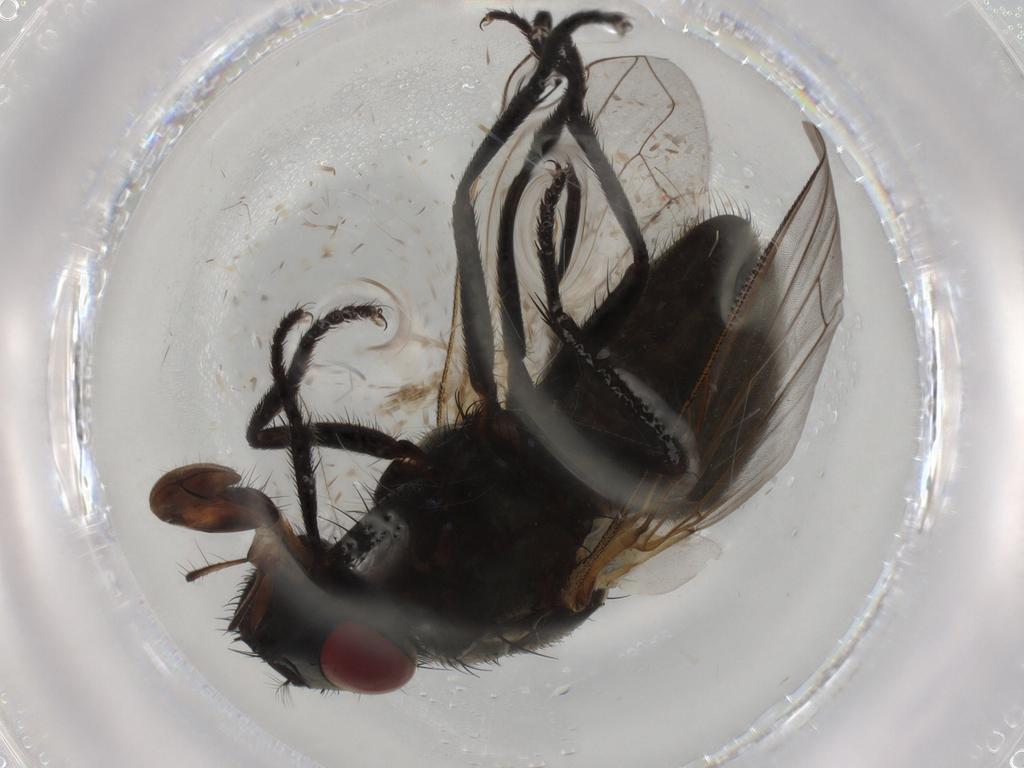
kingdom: Animalia
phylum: Arthropoda
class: Insecta
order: Diptera
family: Muscidae
